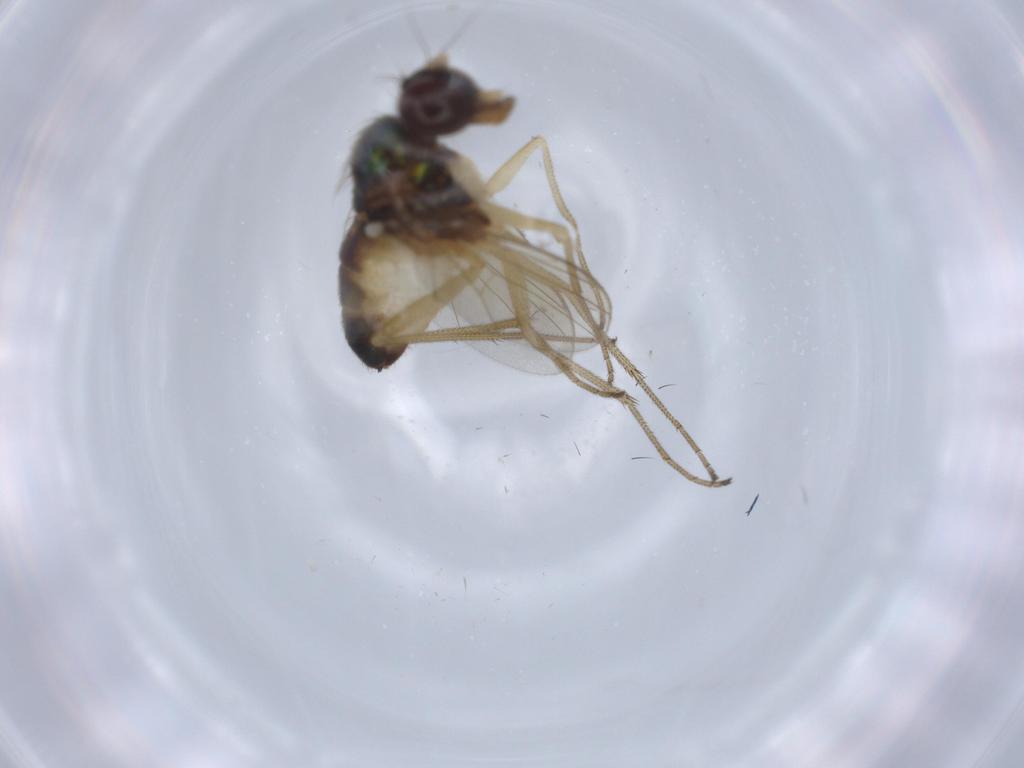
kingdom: Animalia
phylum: Arthropoda
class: Insecta
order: Diptera
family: Dolichopodidae
